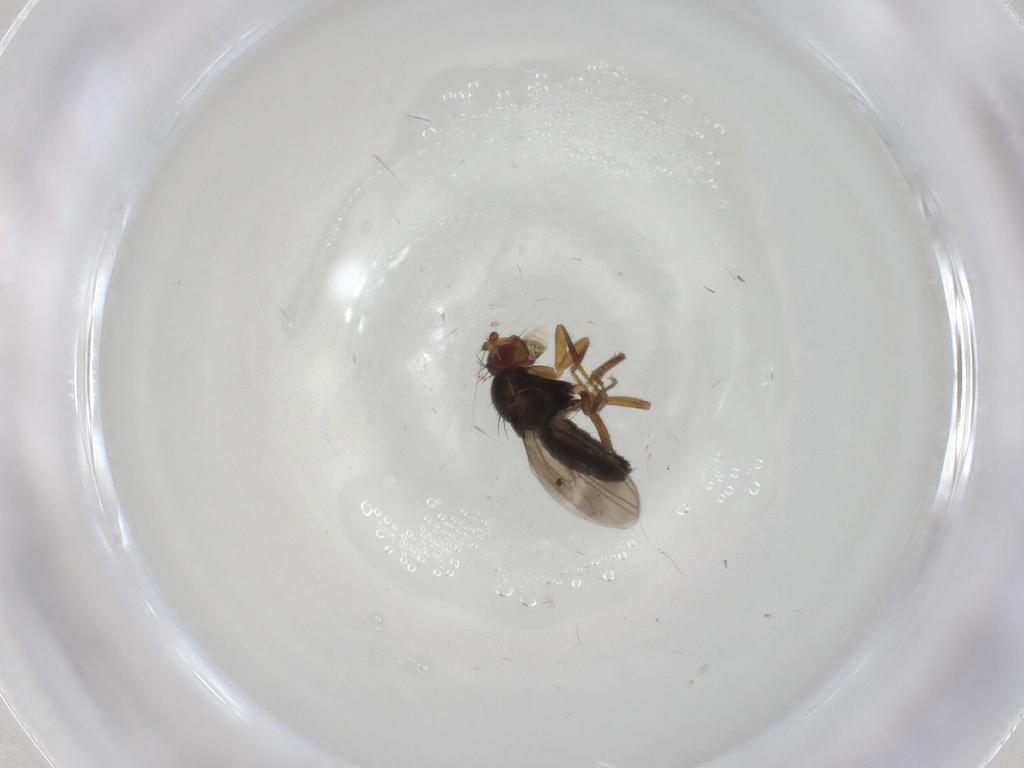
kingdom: Animalia
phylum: Arthropoda
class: Insecta
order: Diptera
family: Sphaeroceridae
